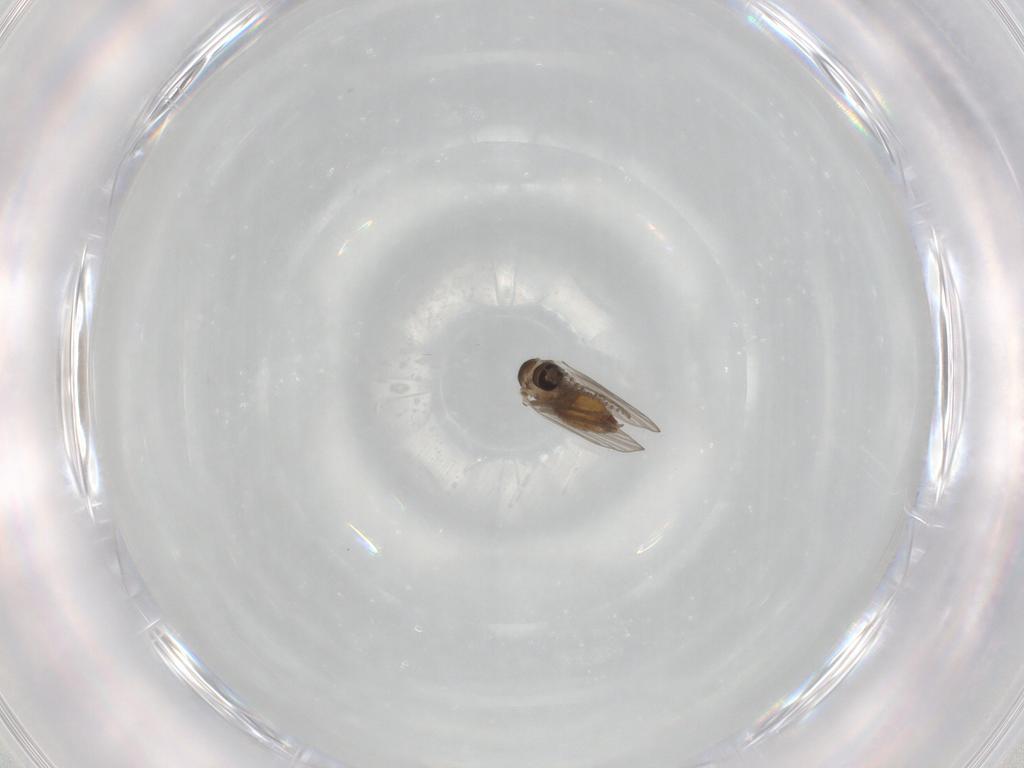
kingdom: Animalia
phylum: Arthropoda
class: Insecta
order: Diptera
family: Psychodidae
